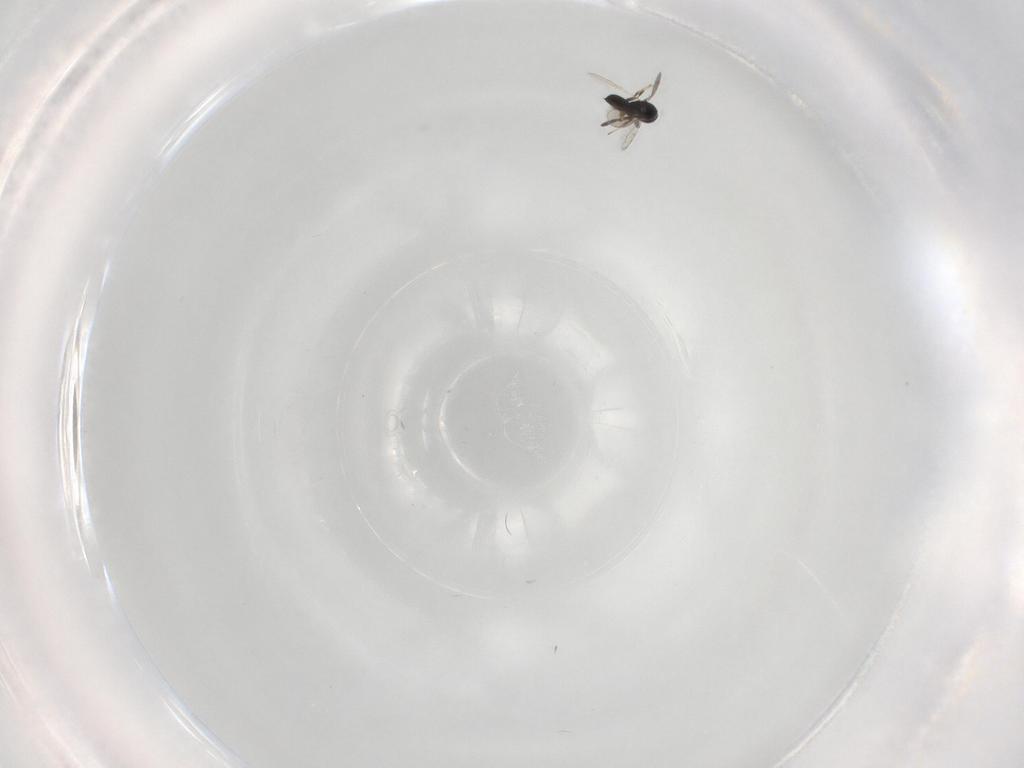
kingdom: Animalia
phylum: Arthropoda
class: Insecta
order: Hymenoptera
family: Scelionidae
